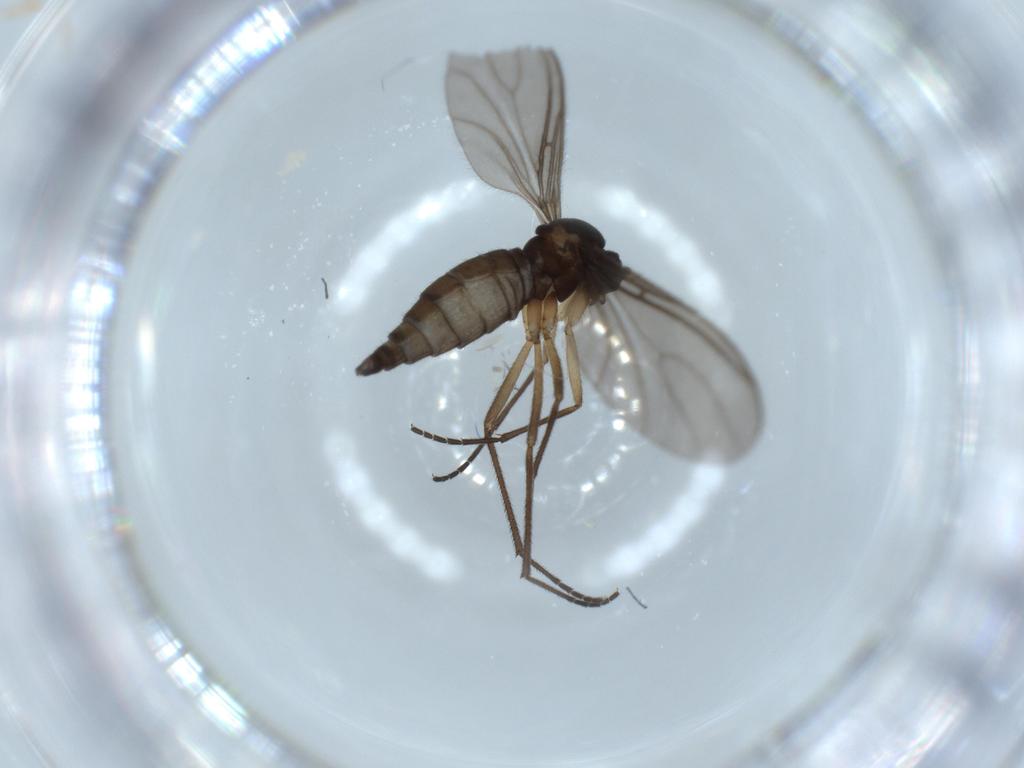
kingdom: Animalia
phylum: Arthropoda
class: Insecta
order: Diptera
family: Sciaridae
